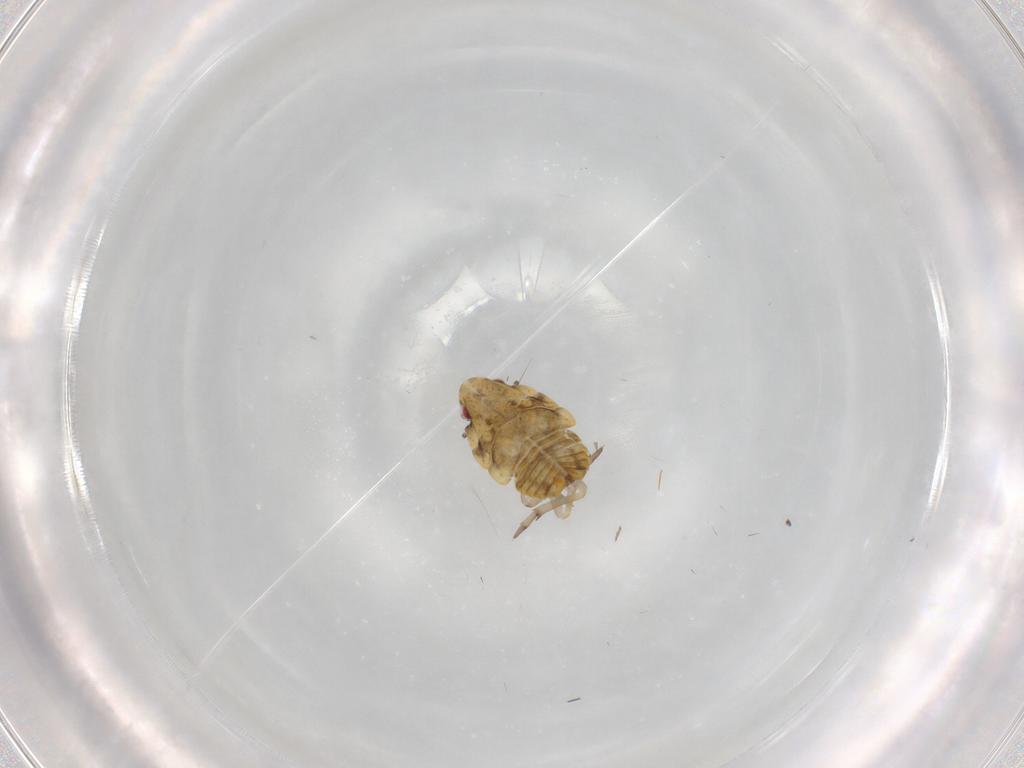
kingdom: Animalia
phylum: Arthropoda
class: Insecta
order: Hemiptera
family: Flatidae
